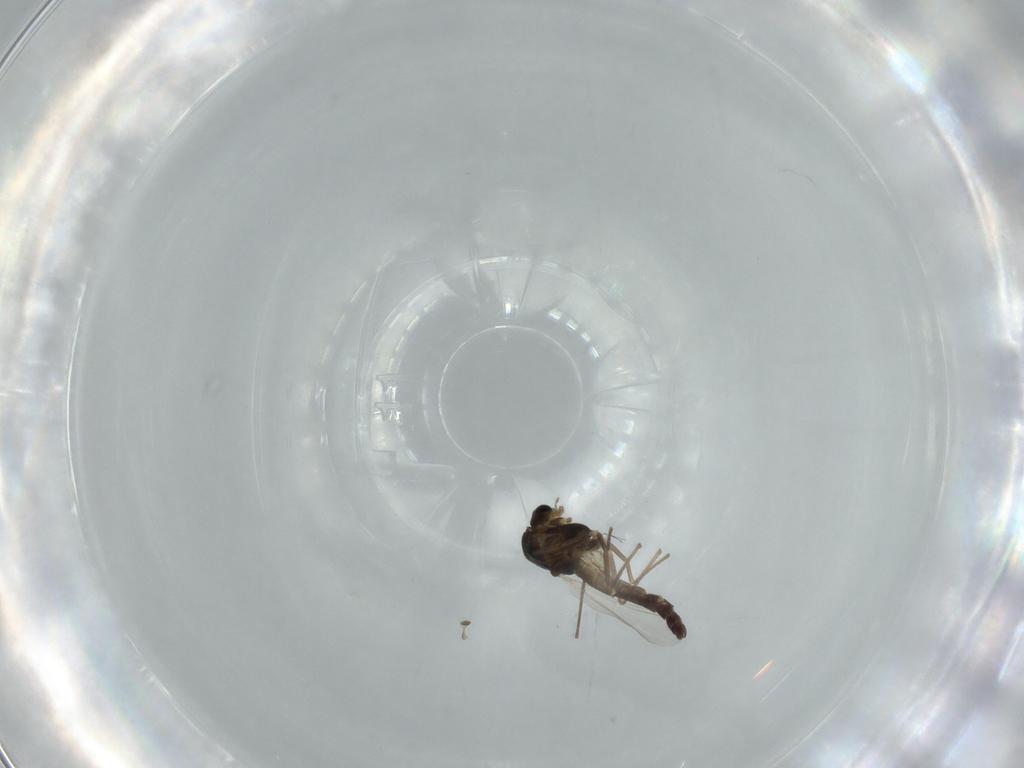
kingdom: Animalia
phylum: Arthropoda
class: Insecta
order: Diptera
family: Chironomidae
